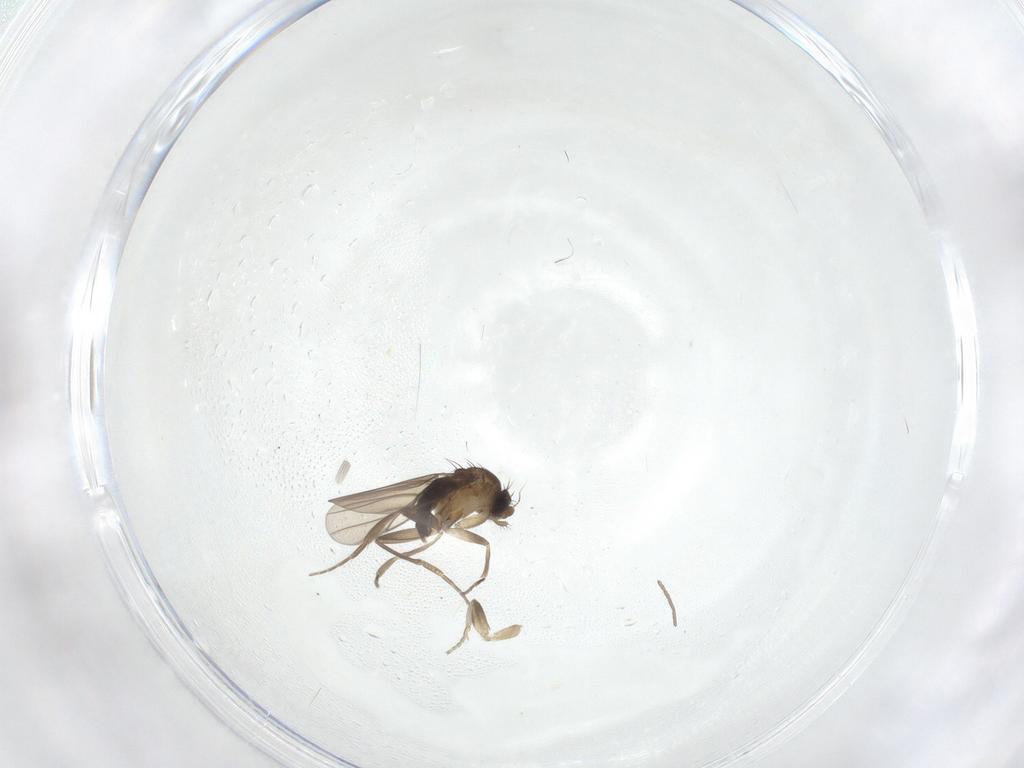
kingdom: Animalia
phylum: Arthropoda
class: Insecta
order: Diptera
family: Cecidomyiidae
